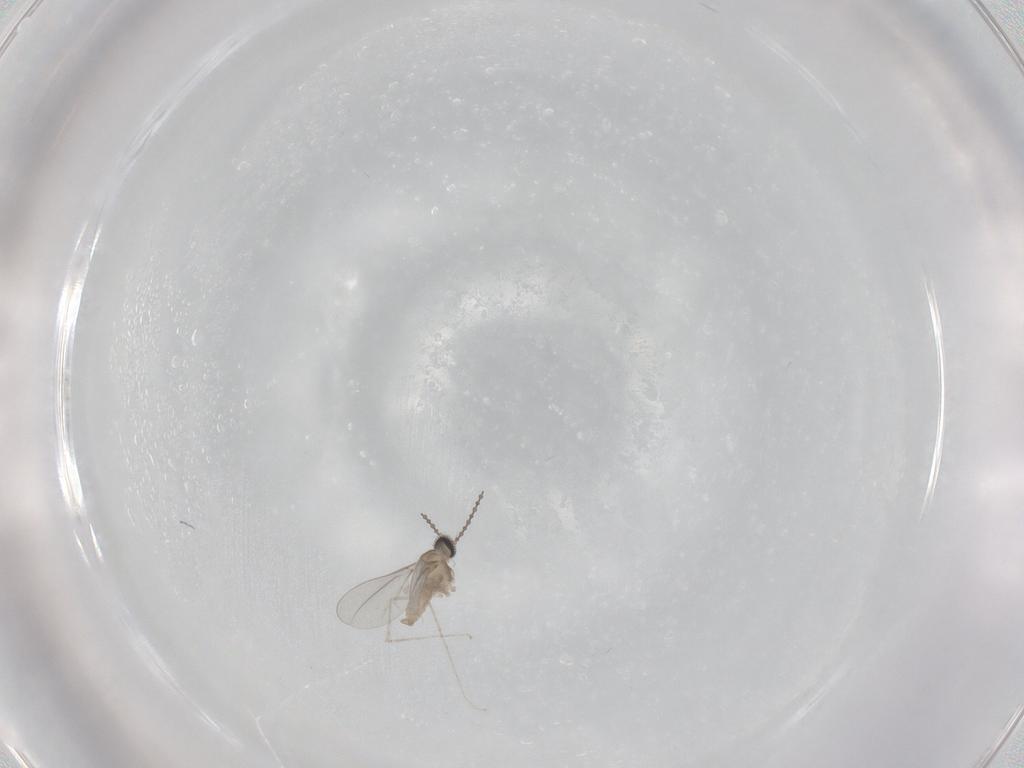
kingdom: Animalia
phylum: Arthropoda
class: Insecta
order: Diptera
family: Cecidomyiidae
